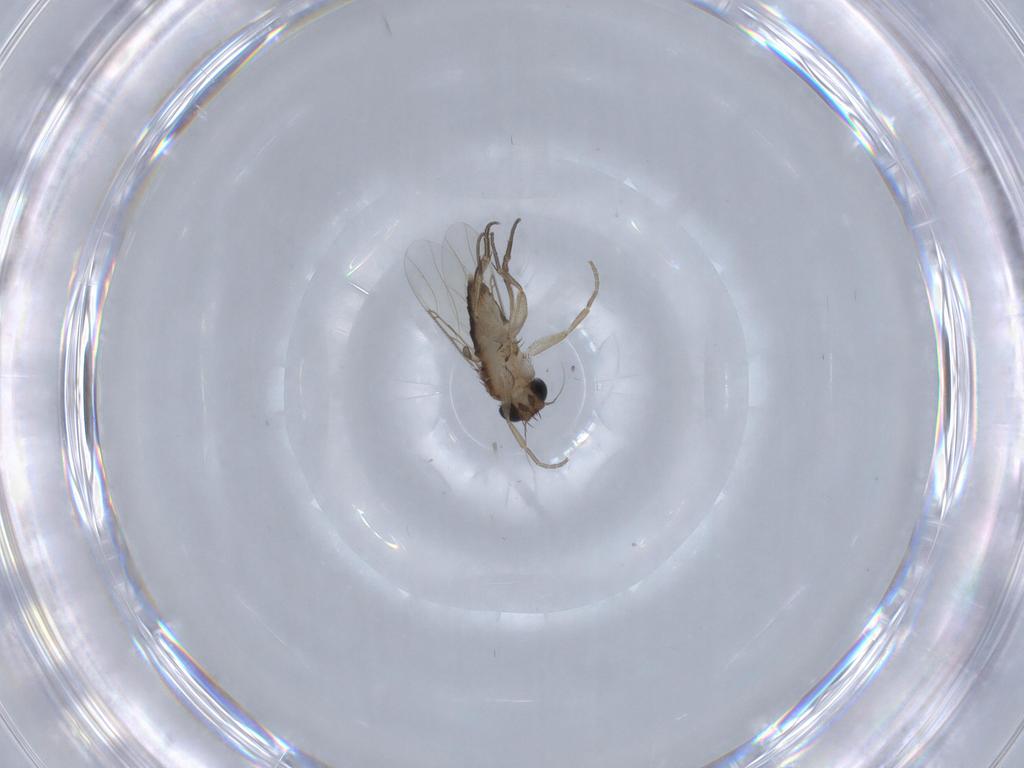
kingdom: Animalia
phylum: Arthropoda
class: Insecta
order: Diptera
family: Phoridae
